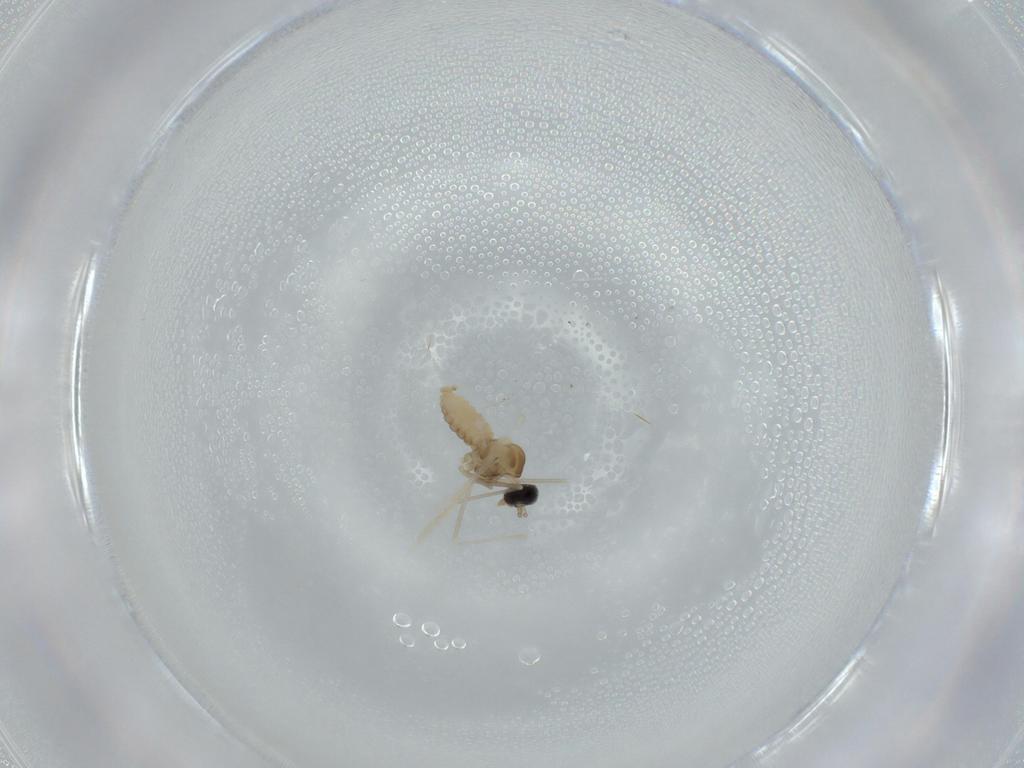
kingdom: Animalia
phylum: Arthropoda
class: Insecta
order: Diptera
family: Cecidomyiidae
